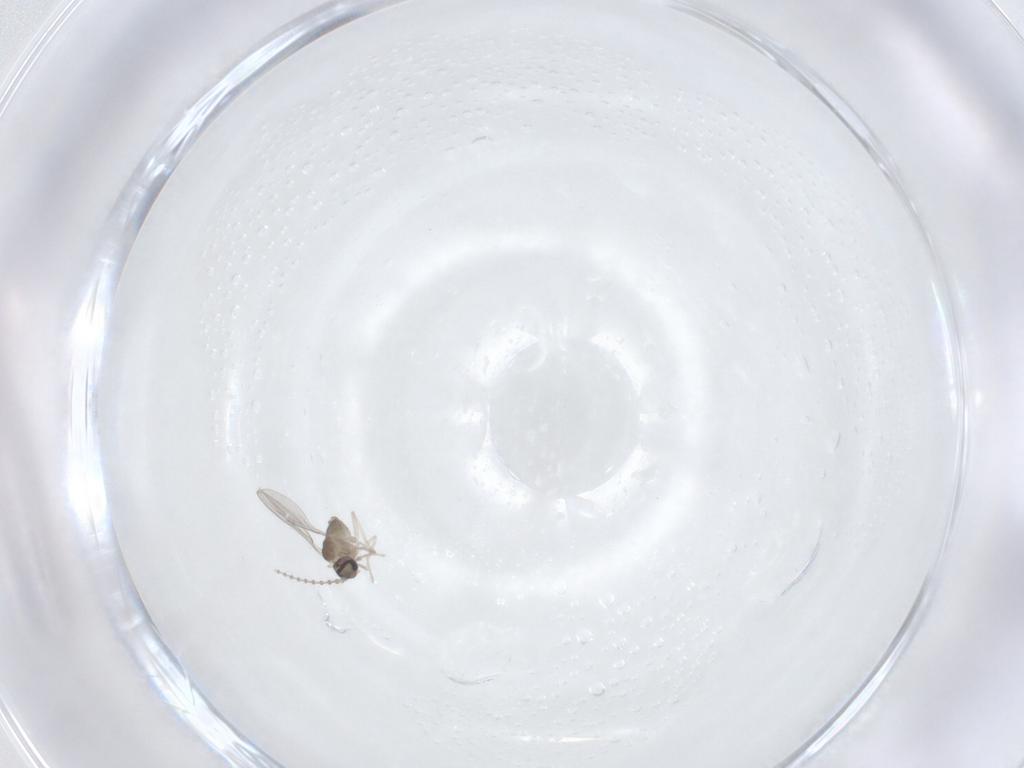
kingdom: Animalia
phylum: Arthropoda
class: Insecta
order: Diptera
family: Cecidomyiidae
